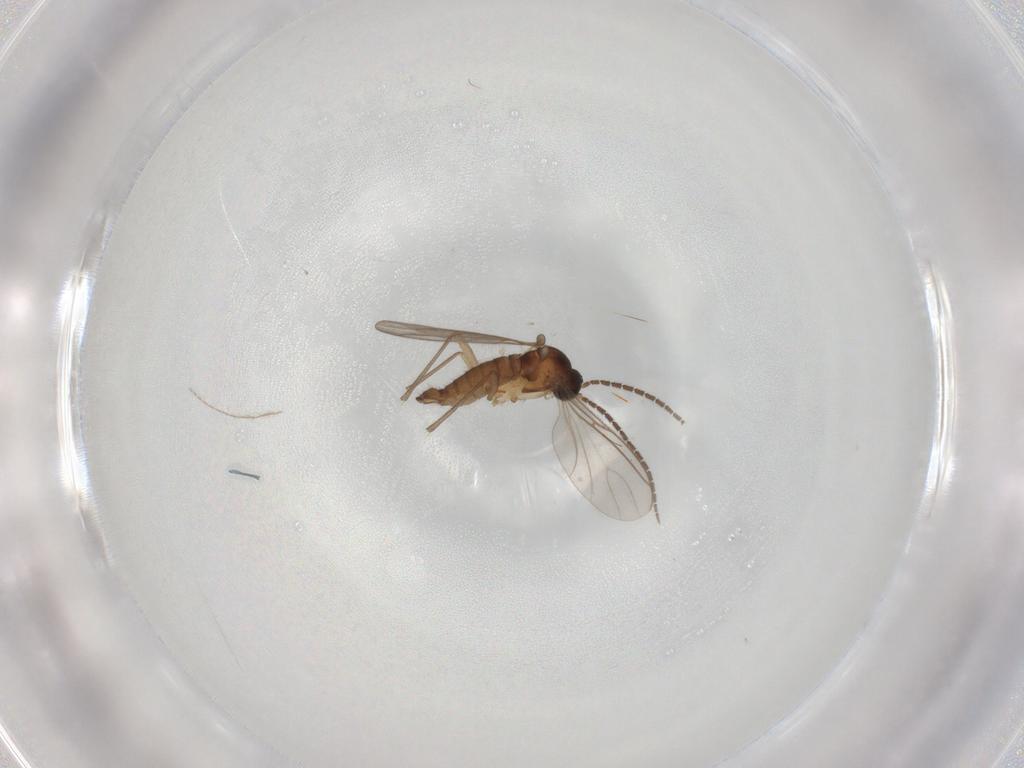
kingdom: Animalia
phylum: Arthropoda
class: Insecta
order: Diptera
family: Sciaridae
